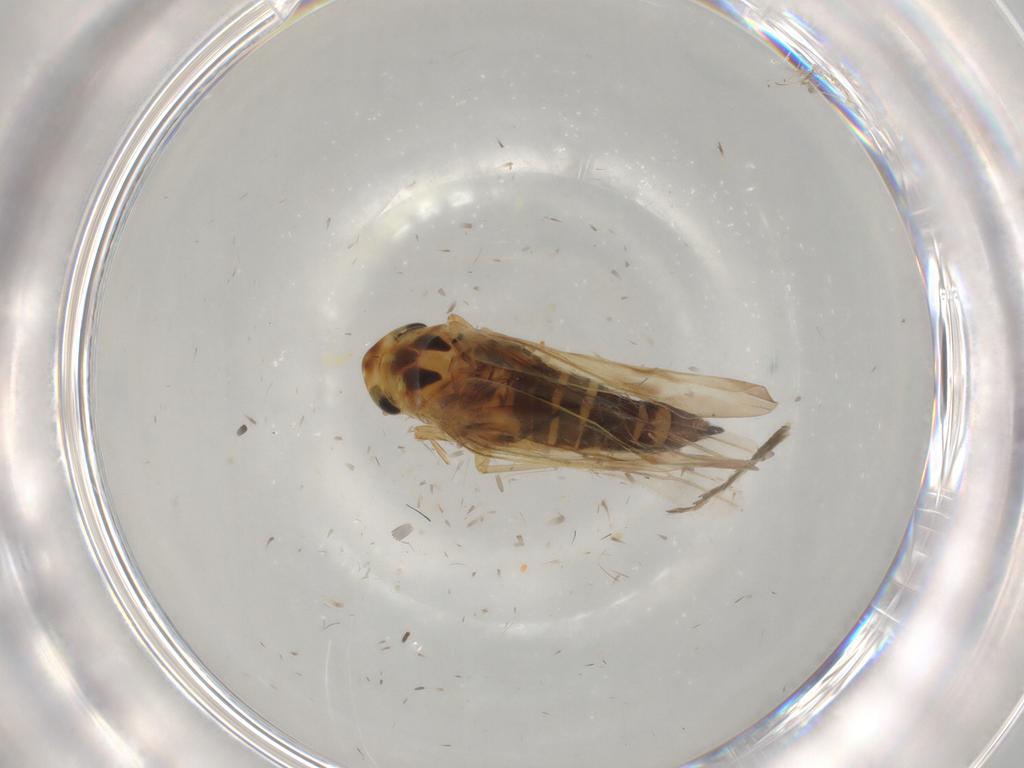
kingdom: Animalia
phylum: Arthropoda
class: Insecta
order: Hemiptera
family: Cicadellidae
